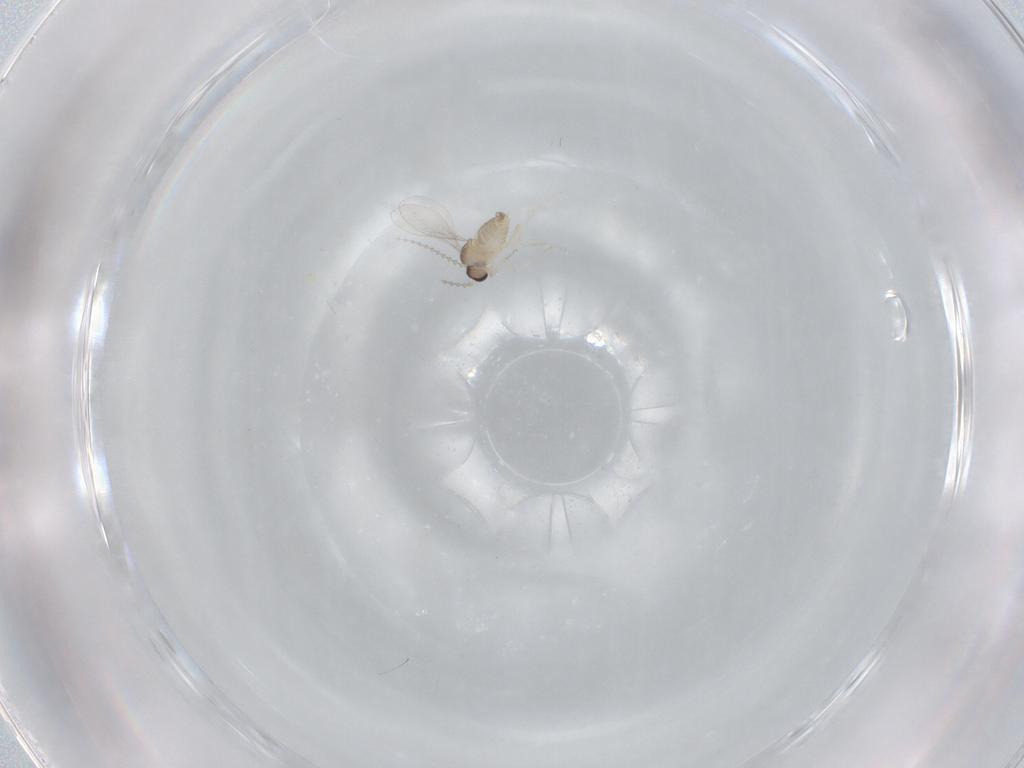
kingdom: Animalia
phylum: Arthropoda
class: Insecta
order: Diptera
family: Cecidomyiidae
